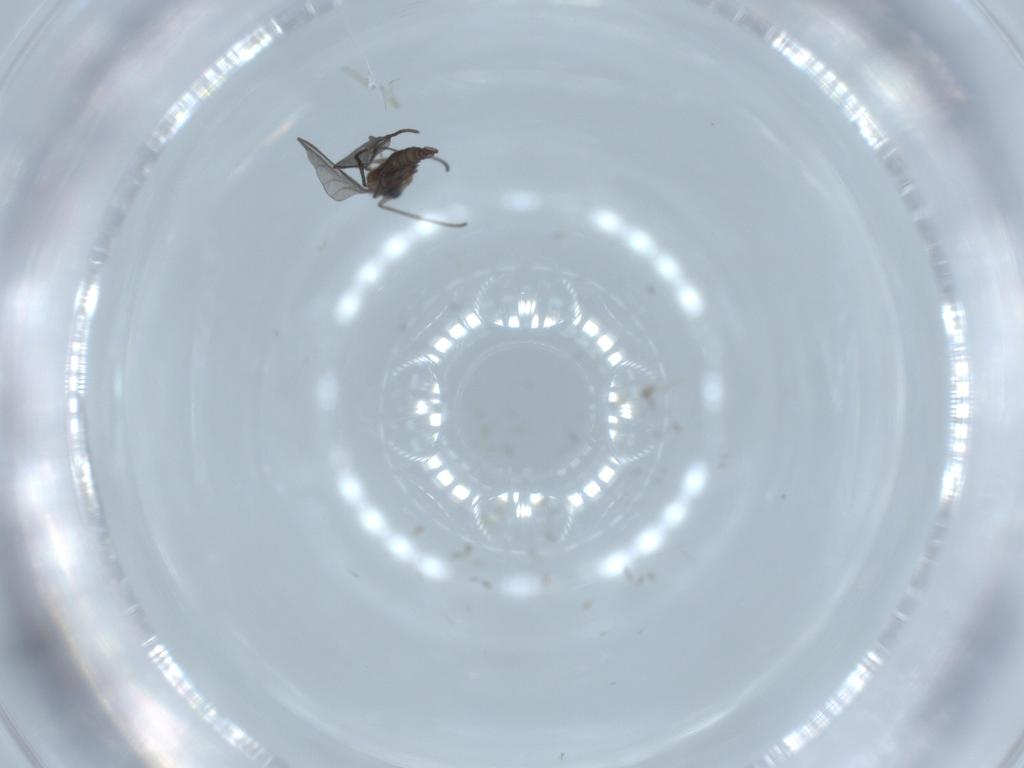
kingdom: Animalia
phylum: Arthropoda
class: Insecta
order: Diptera
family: Sciaridae
